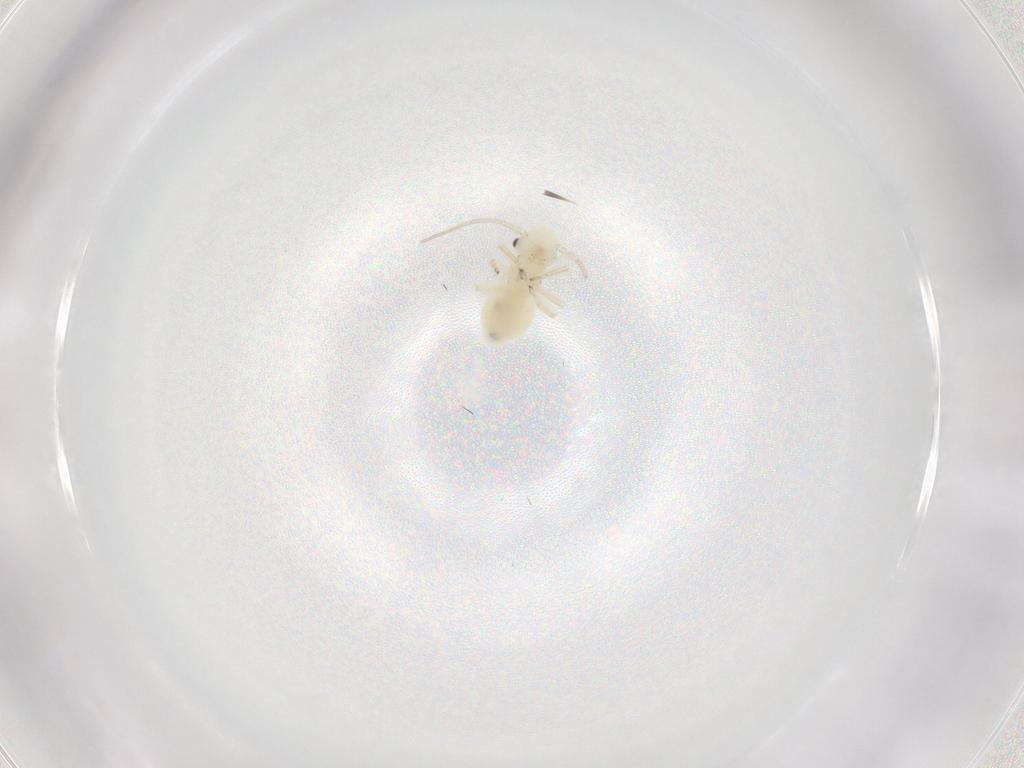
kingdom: Animalia
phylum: Arthropoda
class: Insecta
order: Psocodea
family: Caeciliusidae
